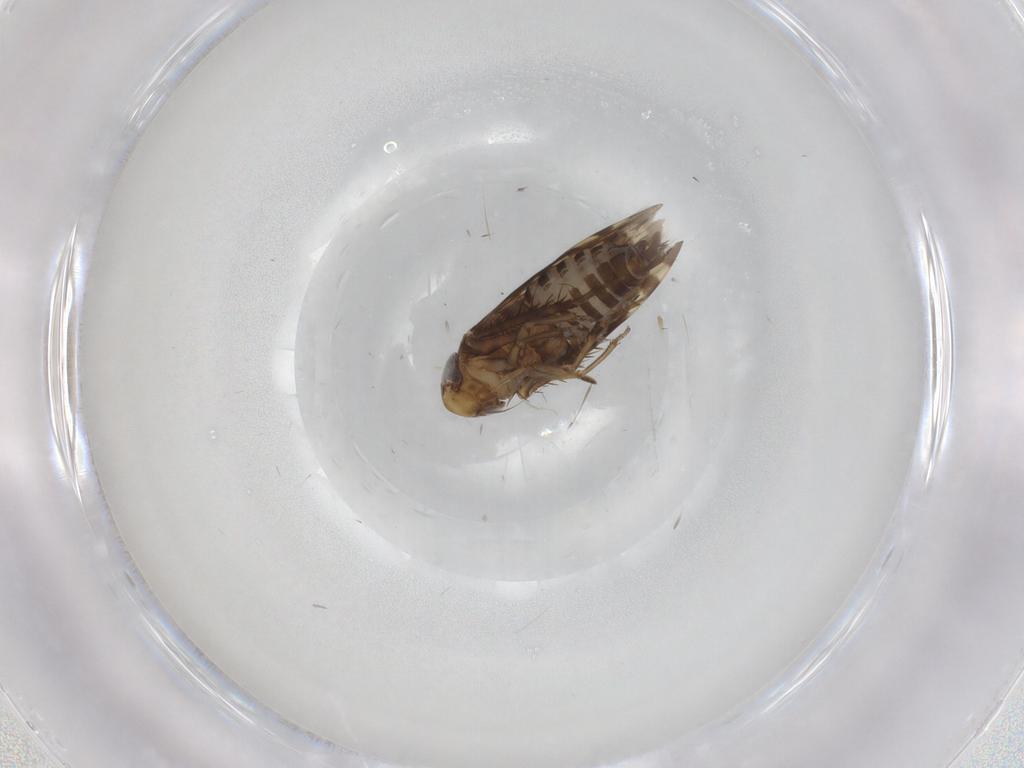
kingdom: Animalia
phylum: Arthropoda
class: Insecta
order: Hemiptera
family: Cicadellidae
